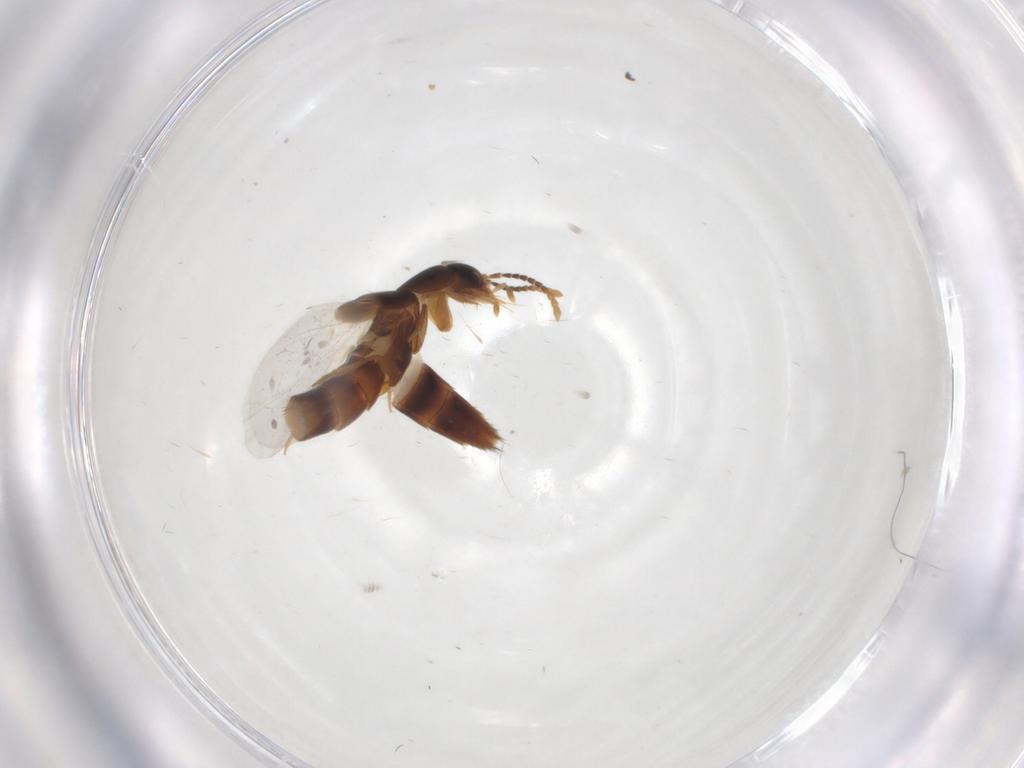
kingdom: Animalia
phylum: Arthropoda
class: Insecta
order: Coleoptera
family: Staphylinidae
